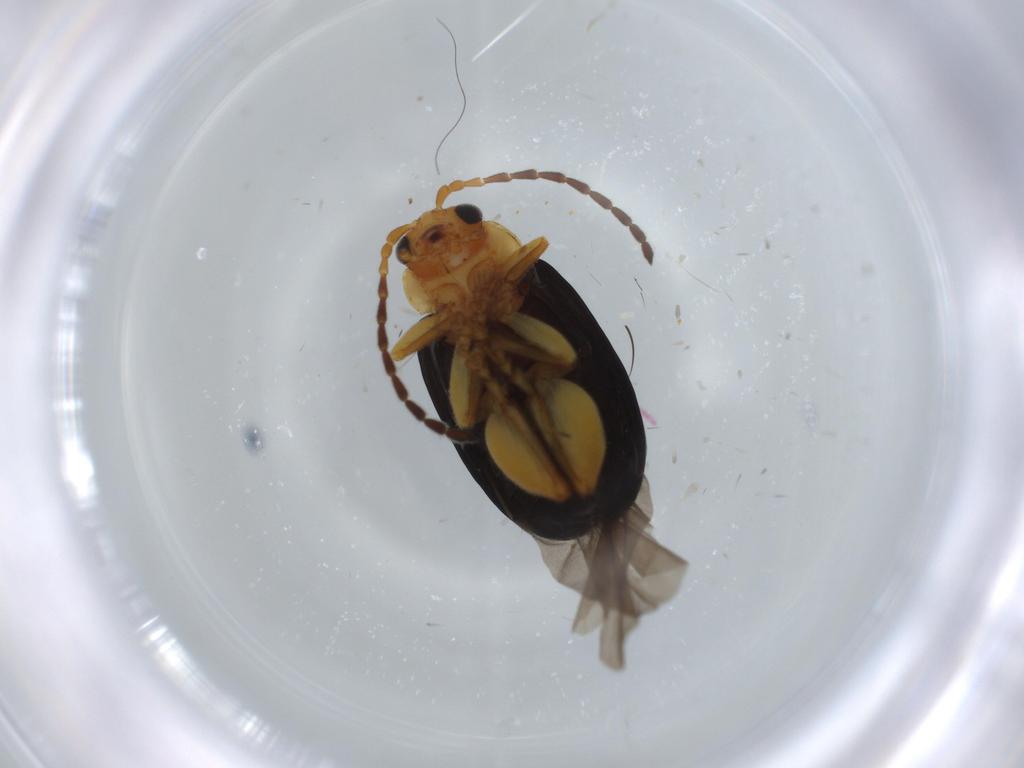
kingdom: Animalia
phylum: Arthropoda
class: Insecta
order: Coleoptera
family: Chrysomelidae
